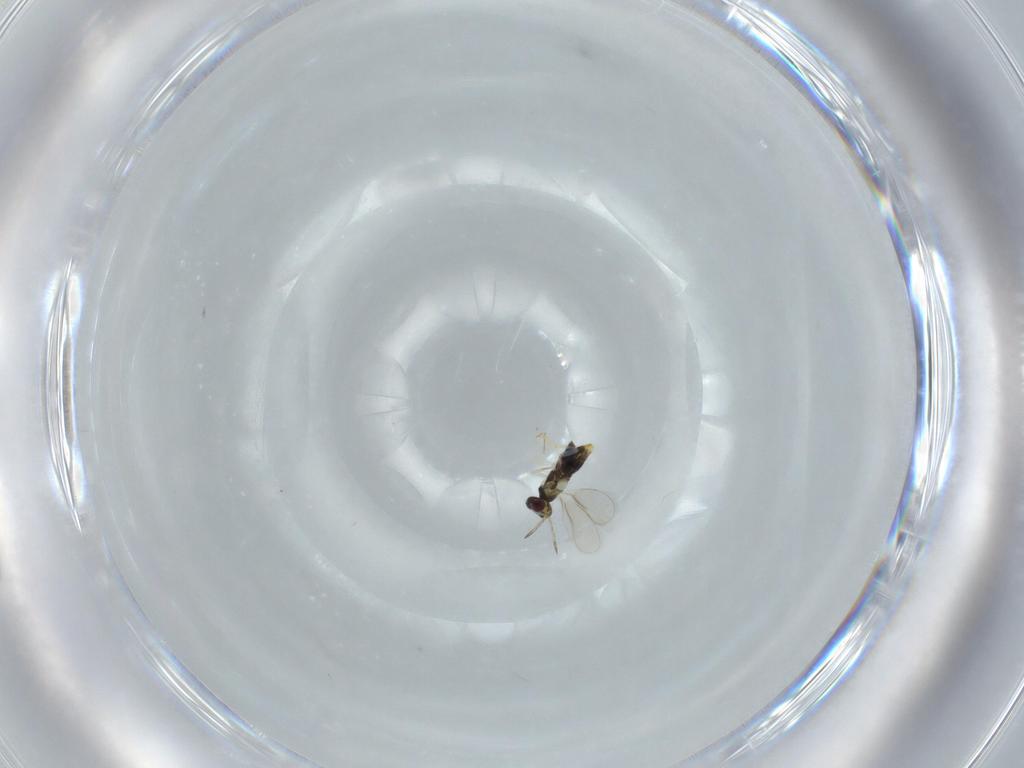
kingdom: Animalia
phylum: Arthropoda
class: Insecta
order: Hymenoptera
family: Aphelinidae
